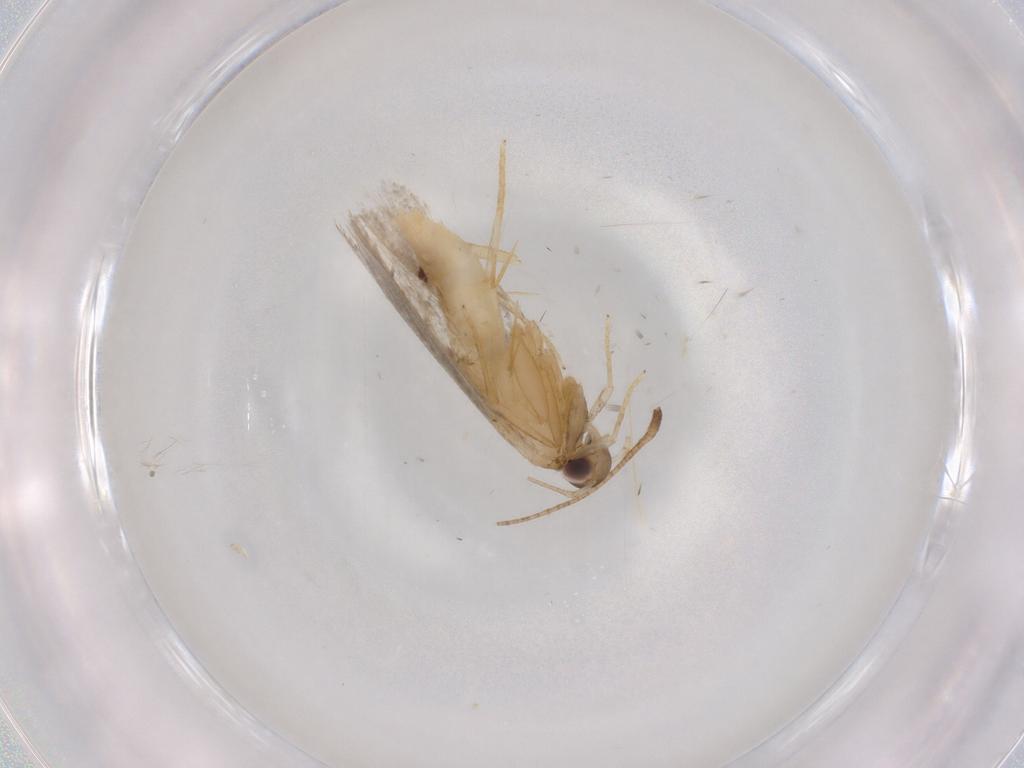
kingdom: Animalia
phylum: Arthropoda
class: Insecta
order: Lepidoptera
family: Autostichidae
